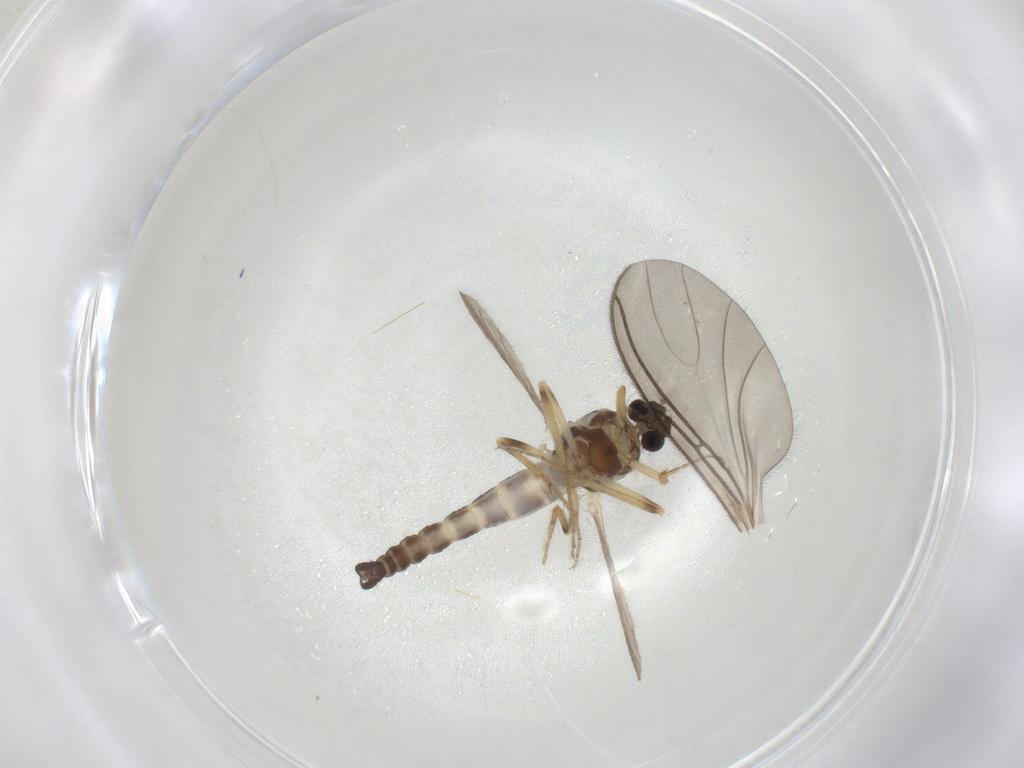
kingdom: Animalia
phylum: Arthropoda
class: Insecta
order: Diptera
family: Ceratopogonidae
